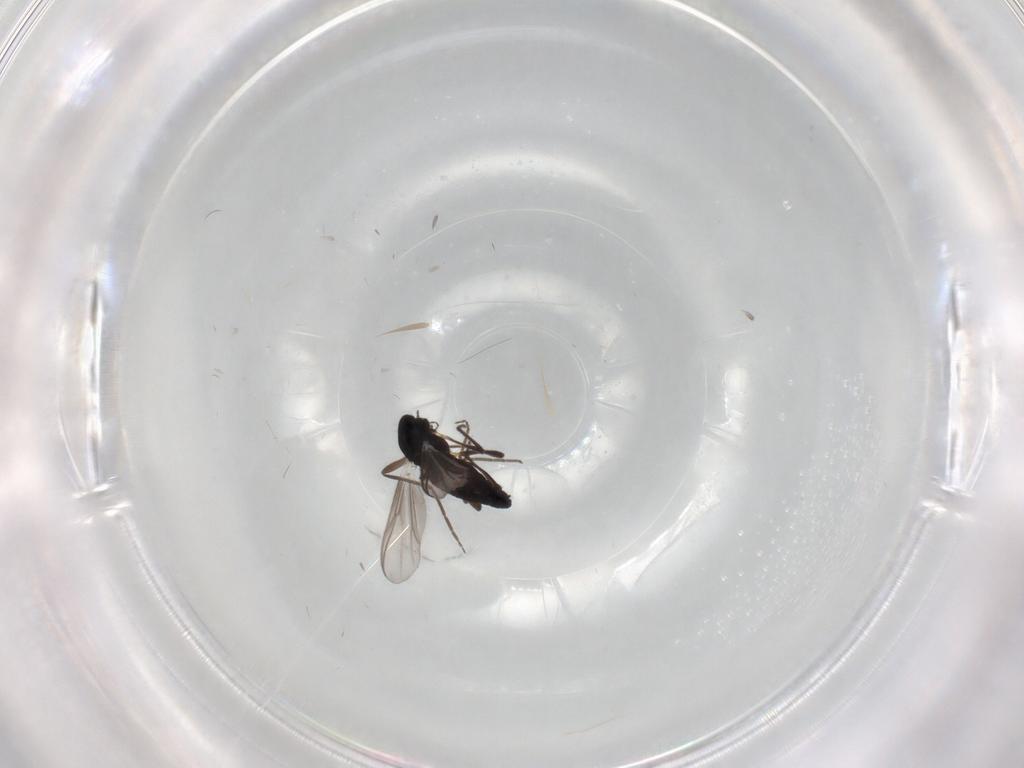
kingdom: Animalia
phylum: Arthropoda
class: Insecta
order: Diptera
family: Chironomidae
